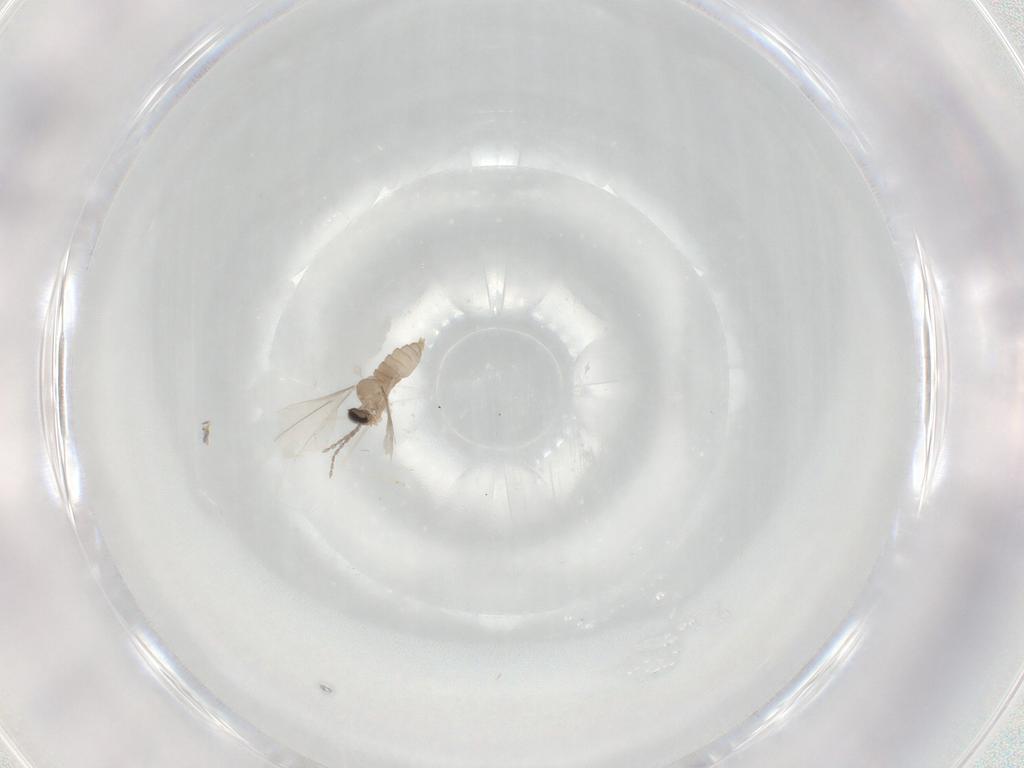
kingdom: Animalia
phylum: Arthropoda
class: Insecta
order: Diptera
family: Cecidomyiidae
